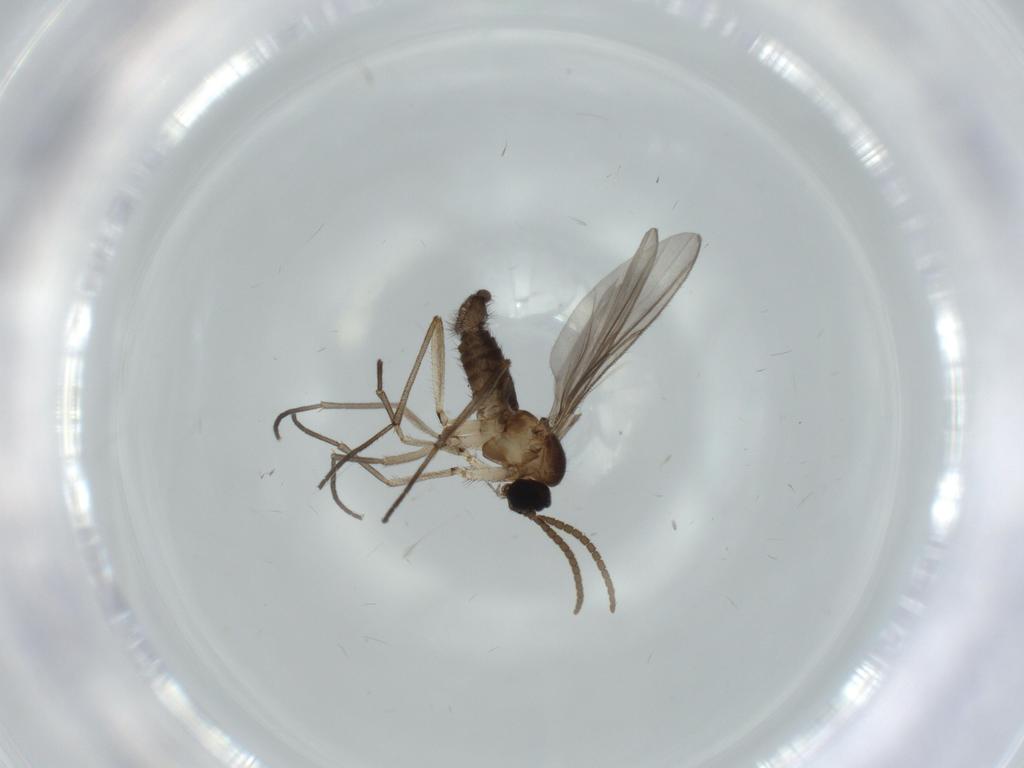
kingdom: Animalia
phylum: Arthropoda
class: Insecta
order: Diptera
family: Sciaridae
